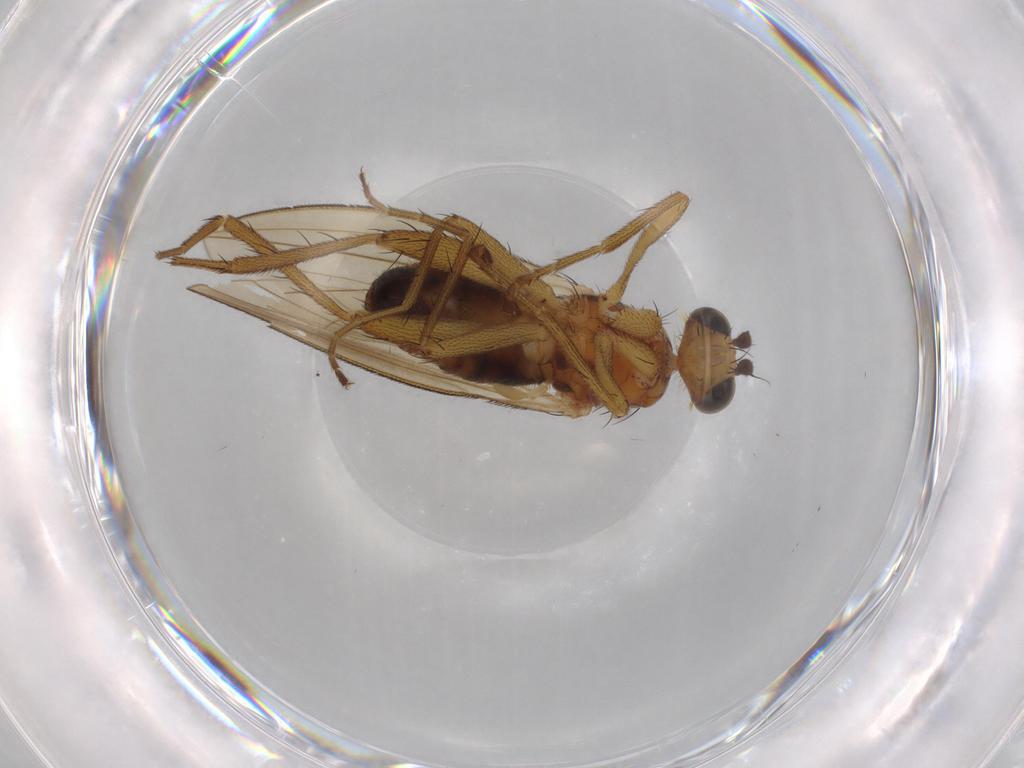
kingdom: Animalia
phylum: Arthropoda
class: Insecta
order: Diptera
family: Lonchopteridae
